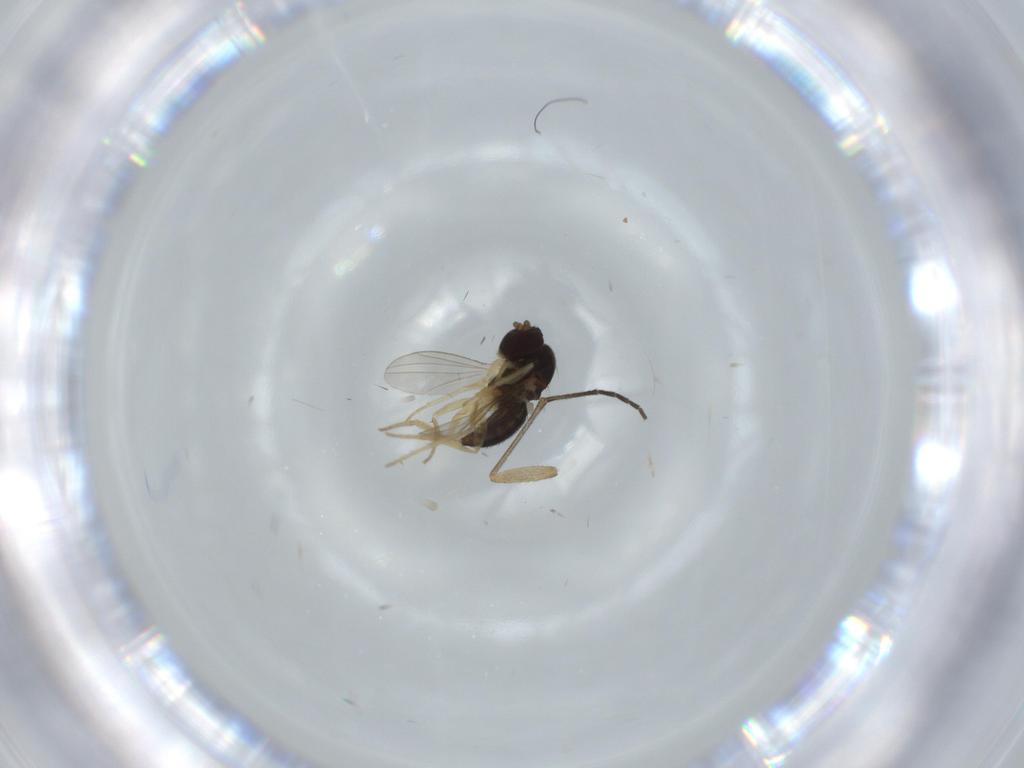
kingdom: Animalia
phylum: Arthropoda
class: Insecta
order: Diptera
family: Dolichopodidae
